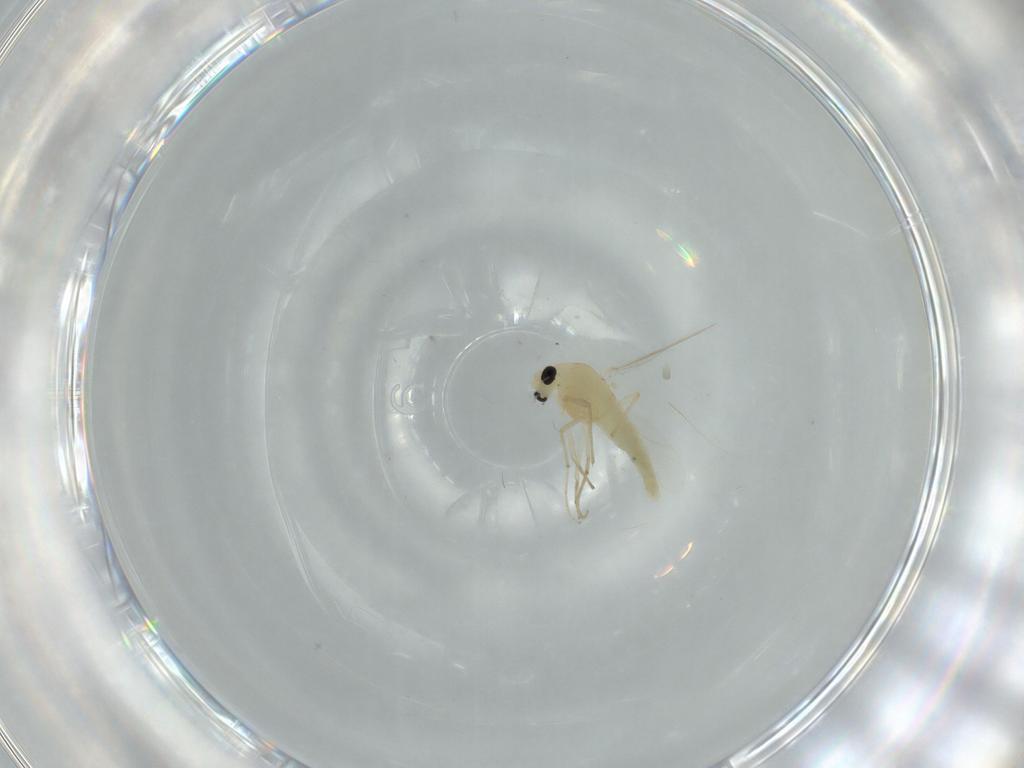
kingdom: Animalia
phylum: Arthropoda
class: Insecta
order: Diptera
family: Chironomidae
